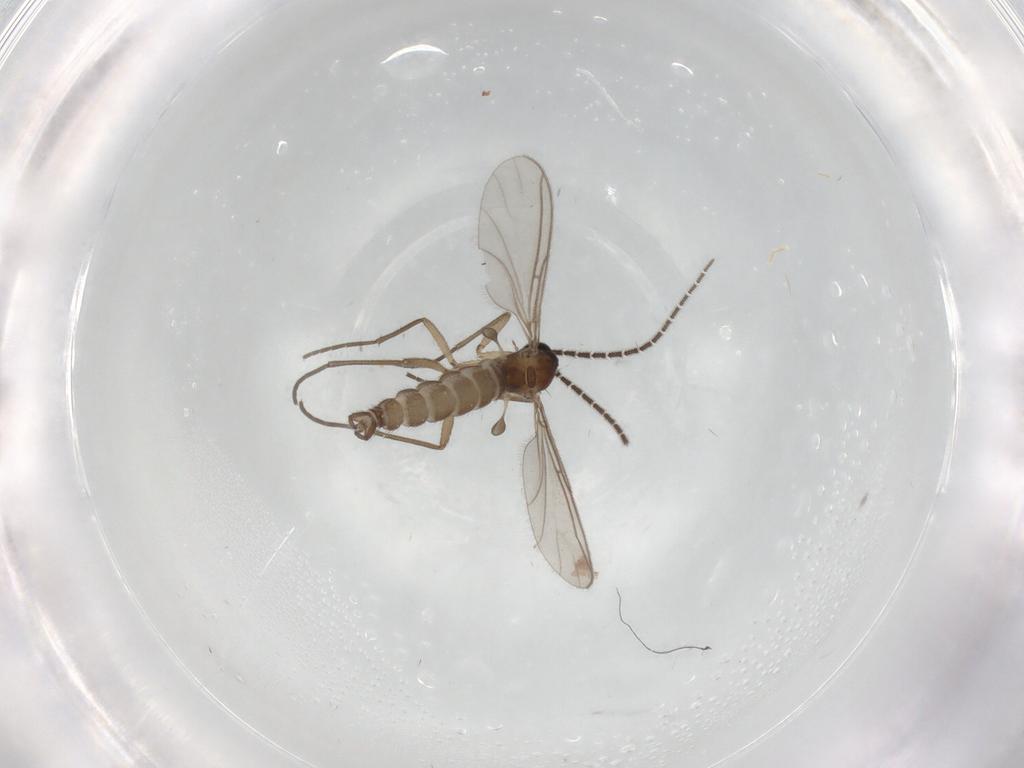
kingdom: Animalia
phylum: Arthropoda
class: Insecta
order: Diptera
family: Sciaridae
